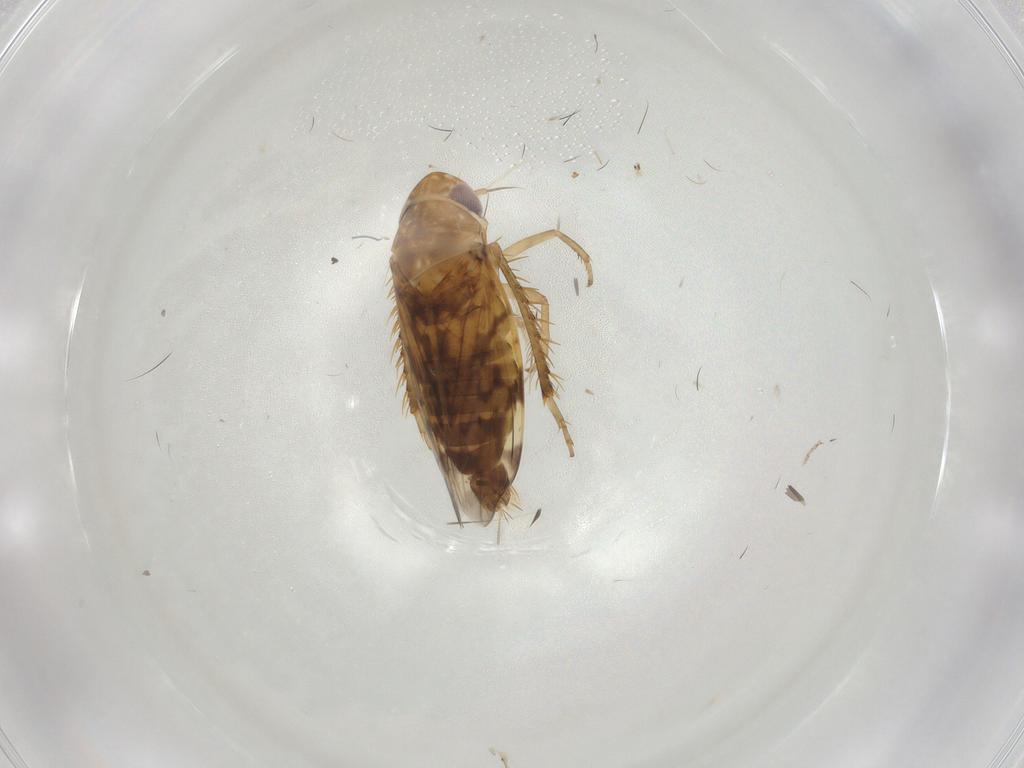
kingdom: Animalia
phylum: Arthropoda
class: Insecta
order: Hemiptera
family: Cicadellidae
